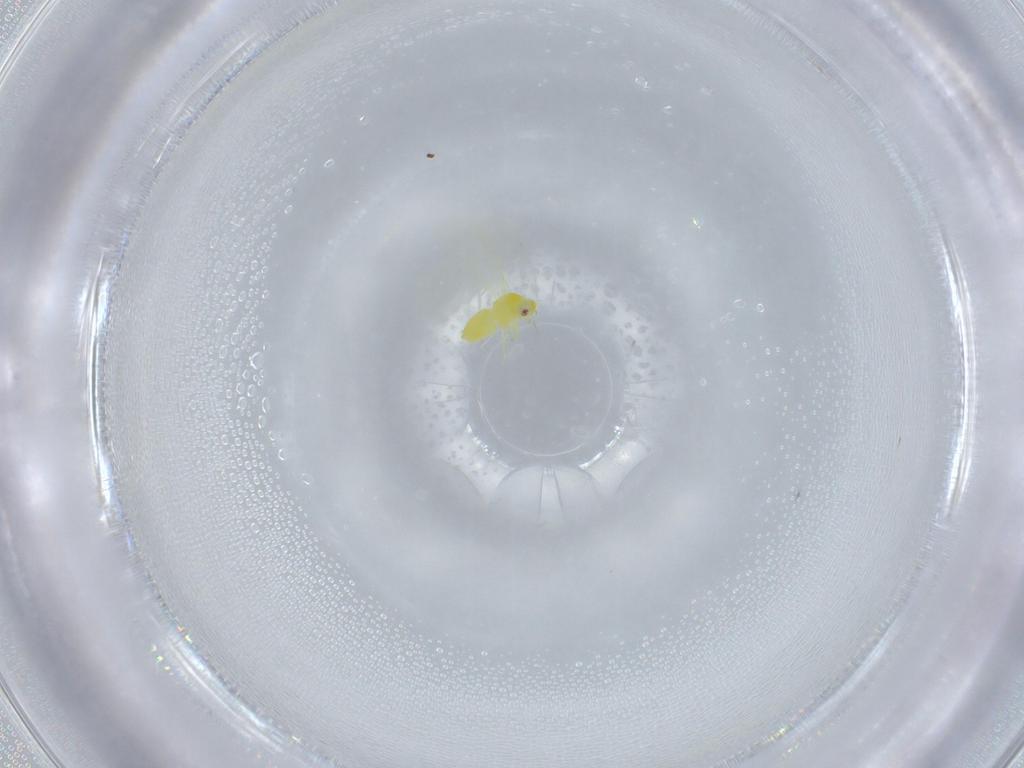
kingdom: Animalia
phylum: Arthropoda
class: Insecta
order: Hemiptera
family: Aleyrodidae
